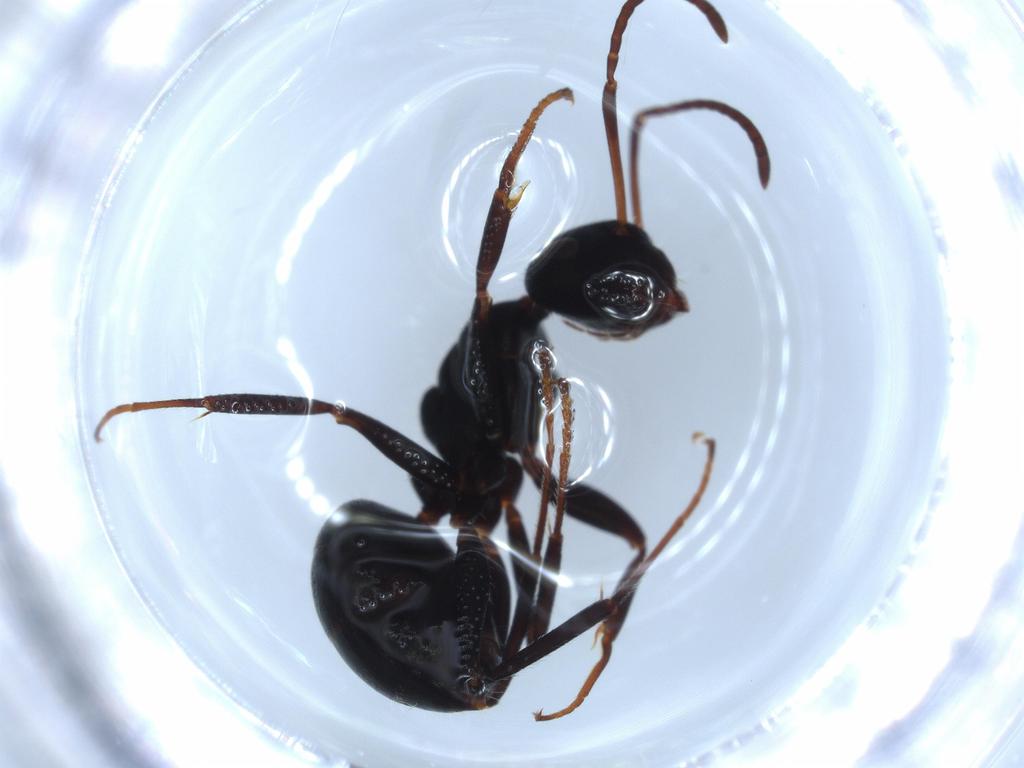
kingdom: Animalia
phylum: Arthropoda
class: Insecta
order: Hymenoptera
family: Formicidae
